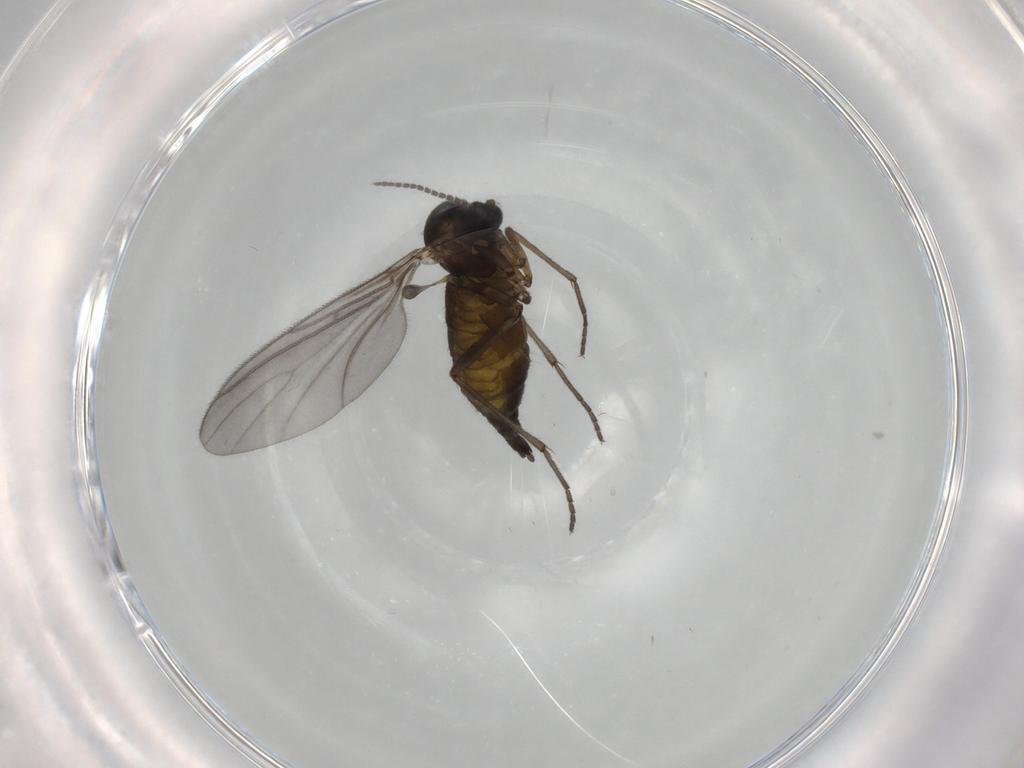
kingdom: Animalia
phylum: Arthropoda
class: Insecta
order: Diptera
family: Sciaridae
